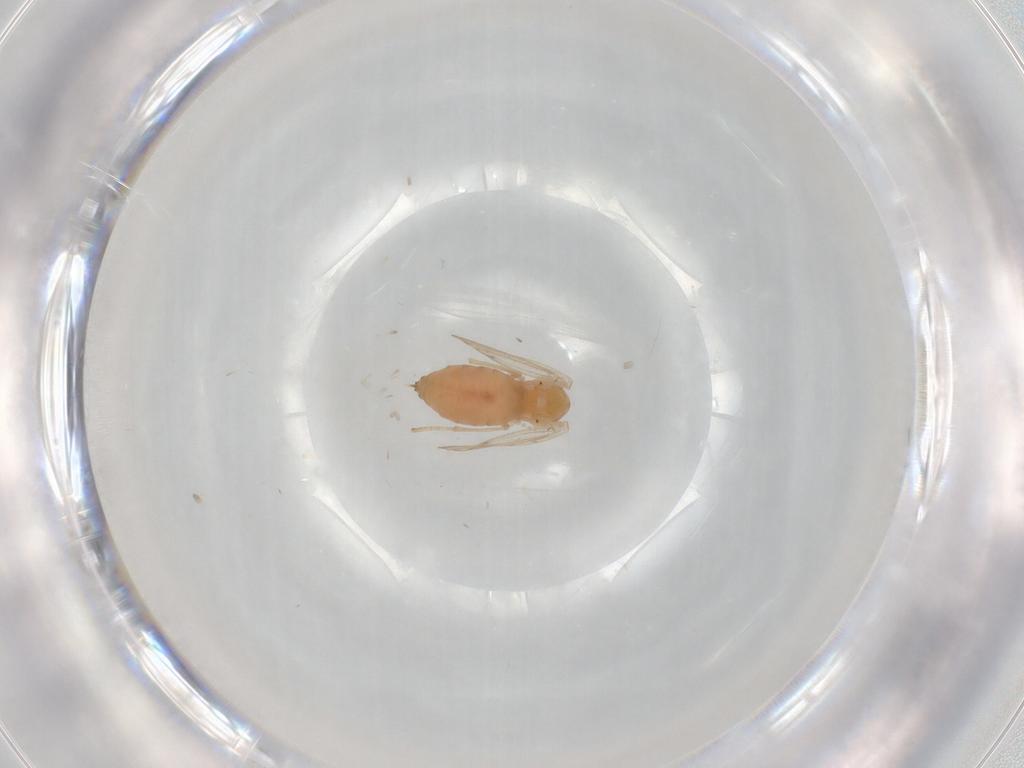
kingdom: Animalia
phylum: Arthropoda
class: Insecta
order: Diptera
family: Psychodidae
